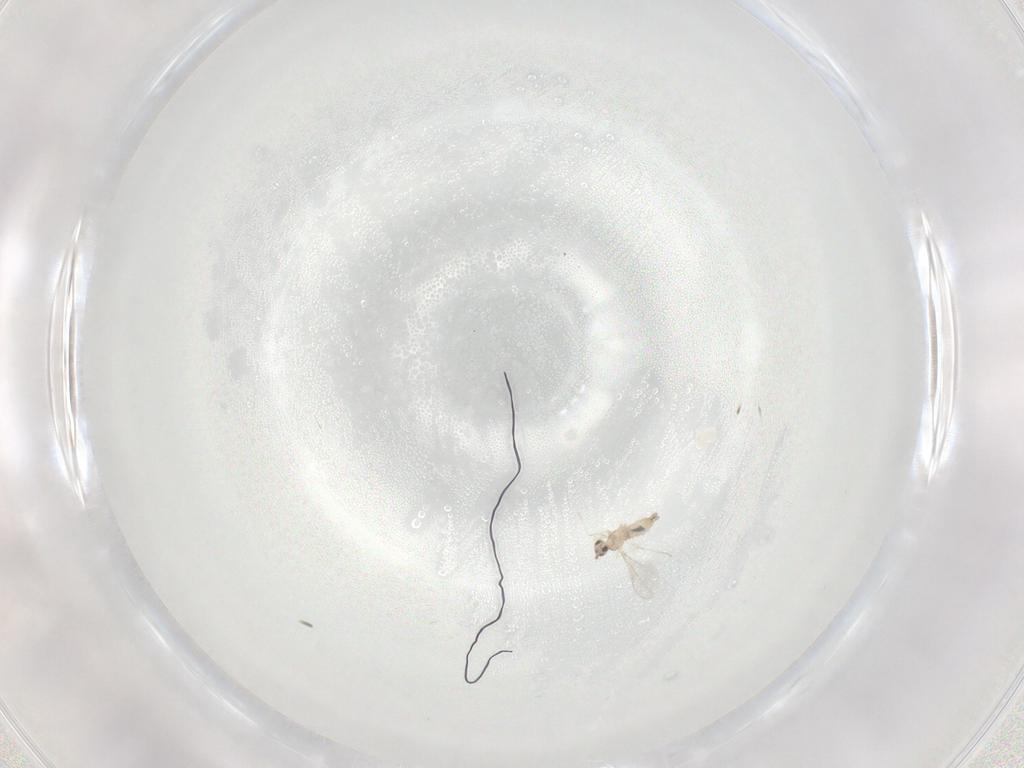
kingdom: Animalia
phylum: Arthropoda
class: Insecta
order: Diptera
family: Cecidomyiidae
